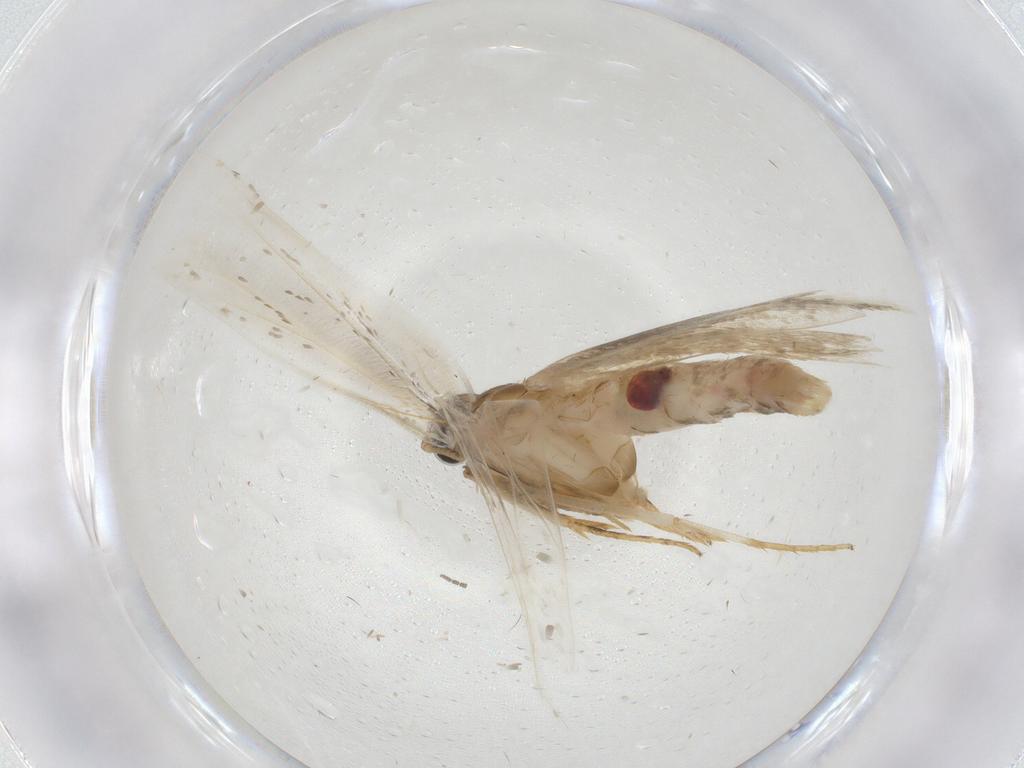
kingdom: Animalia
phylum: Arthropoda
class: Insecta
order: Lepidoptera
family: Gelechiidae
